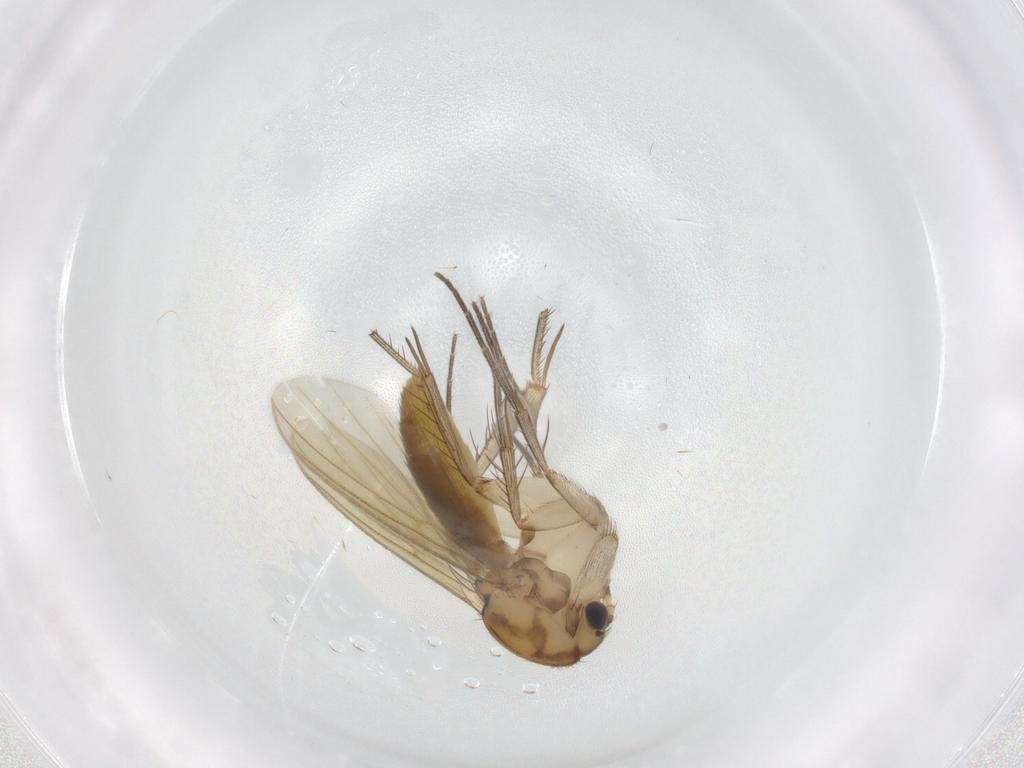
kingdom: Animalia
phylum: Arthropoda
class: Insecta
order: Diptera
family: Mycetophilidae
